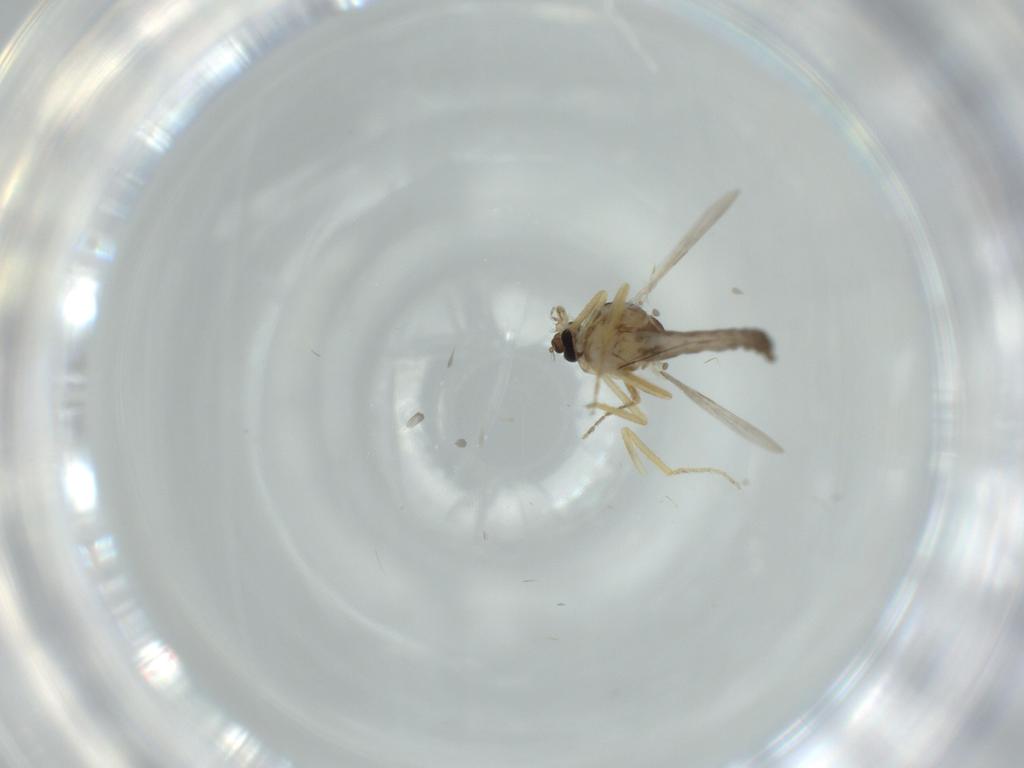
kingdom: Animalia
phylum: Arthropoda
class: Insecta
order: Diptera
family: Ceratopogonidae
